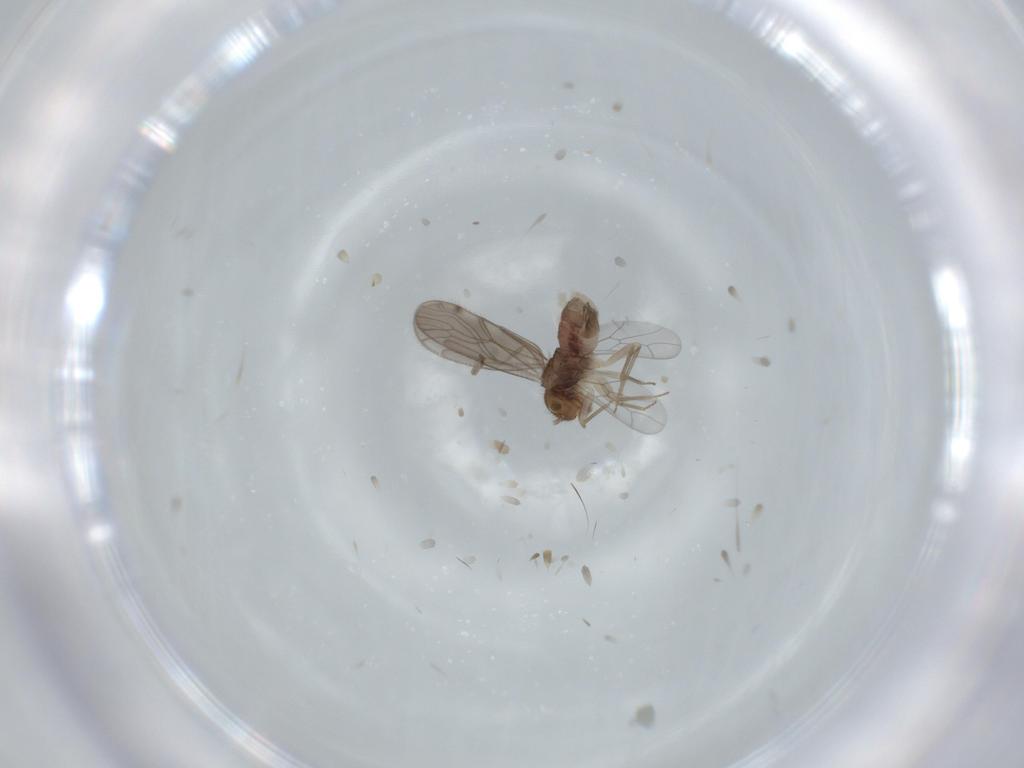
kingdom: Animalia
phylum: Arthropoda
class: Insecta
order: Psocodea
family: Ectopsocidae
